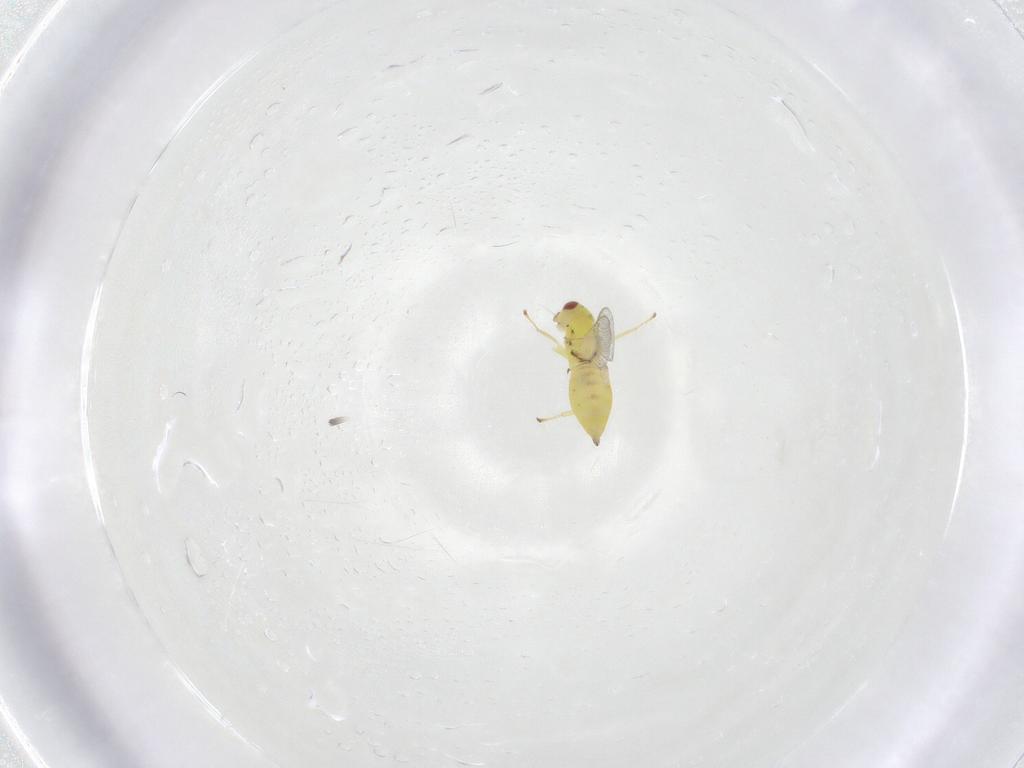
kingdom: Animalia
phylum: Arthropoda
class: Insecta
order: Hymenoptera
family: Eulophidae
